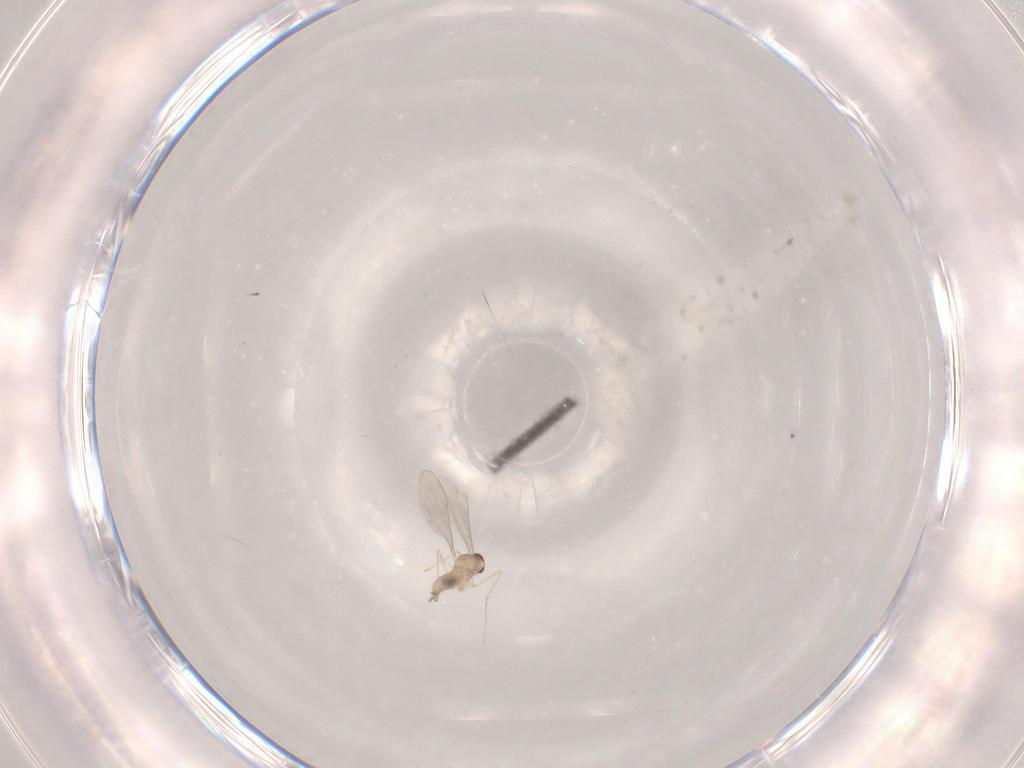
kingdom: Animalia
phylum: Arthropoda
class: Insecta
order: Diptera
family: Cecidomyiidae
